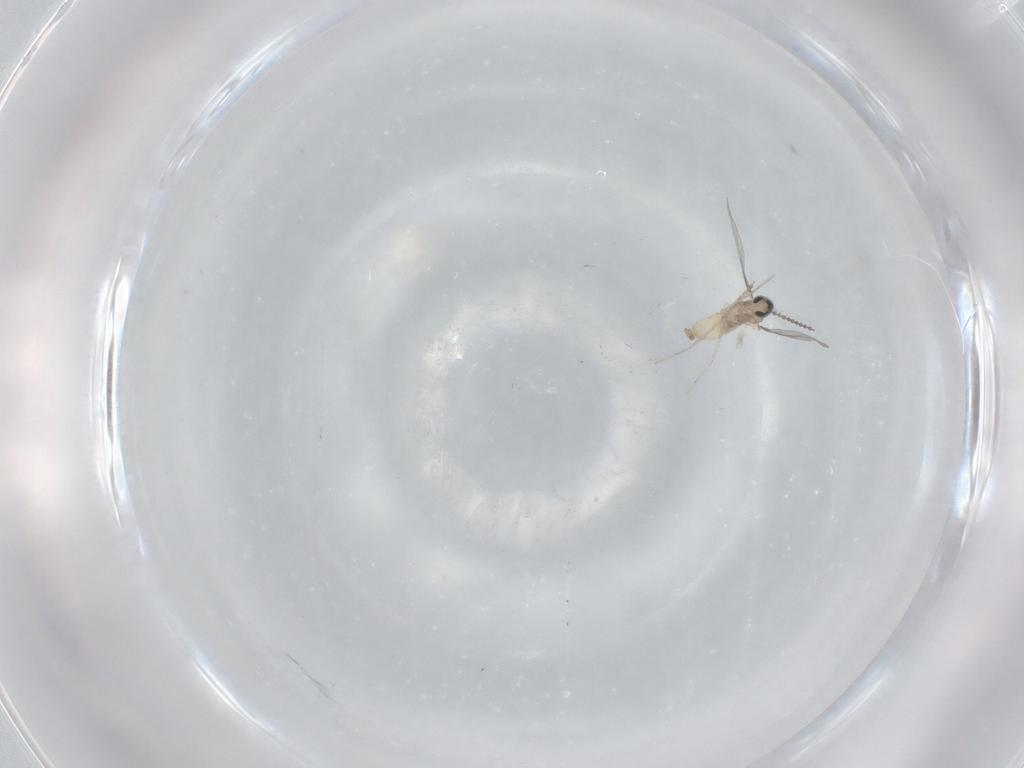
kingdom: Animalia
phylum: Arthropoda
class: Insecta
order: Diptera
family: Cecidomyiidae
